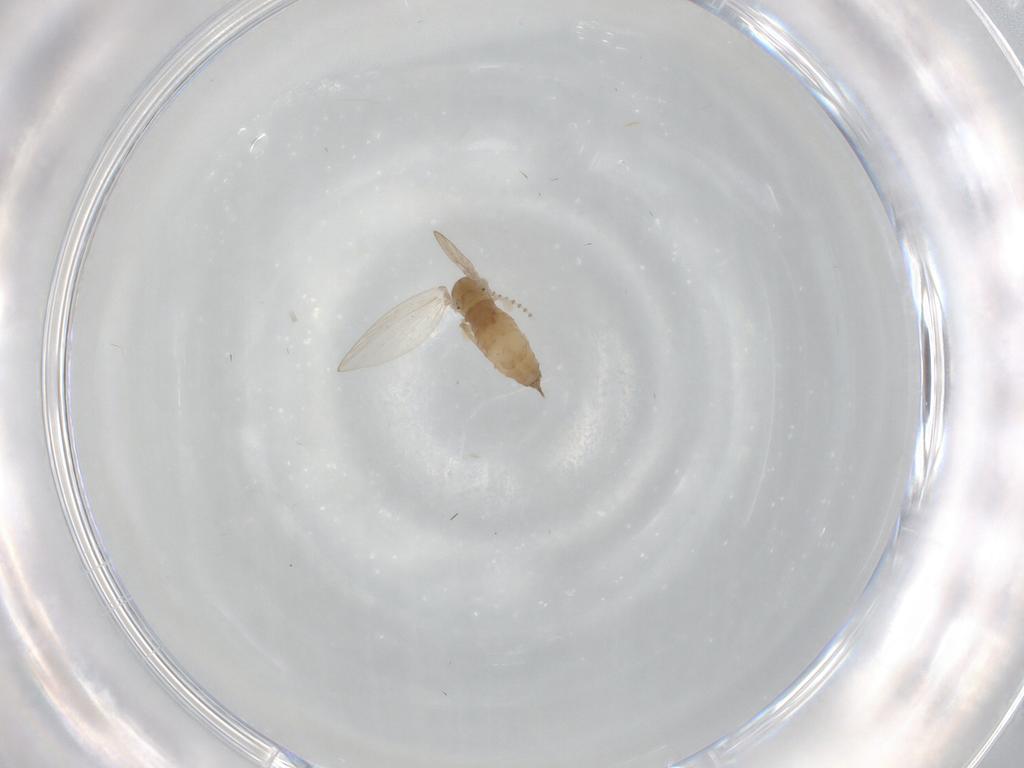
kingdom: Animalia
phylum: Arthropoda
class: Insecta
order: Diptera
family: Psychodidae
